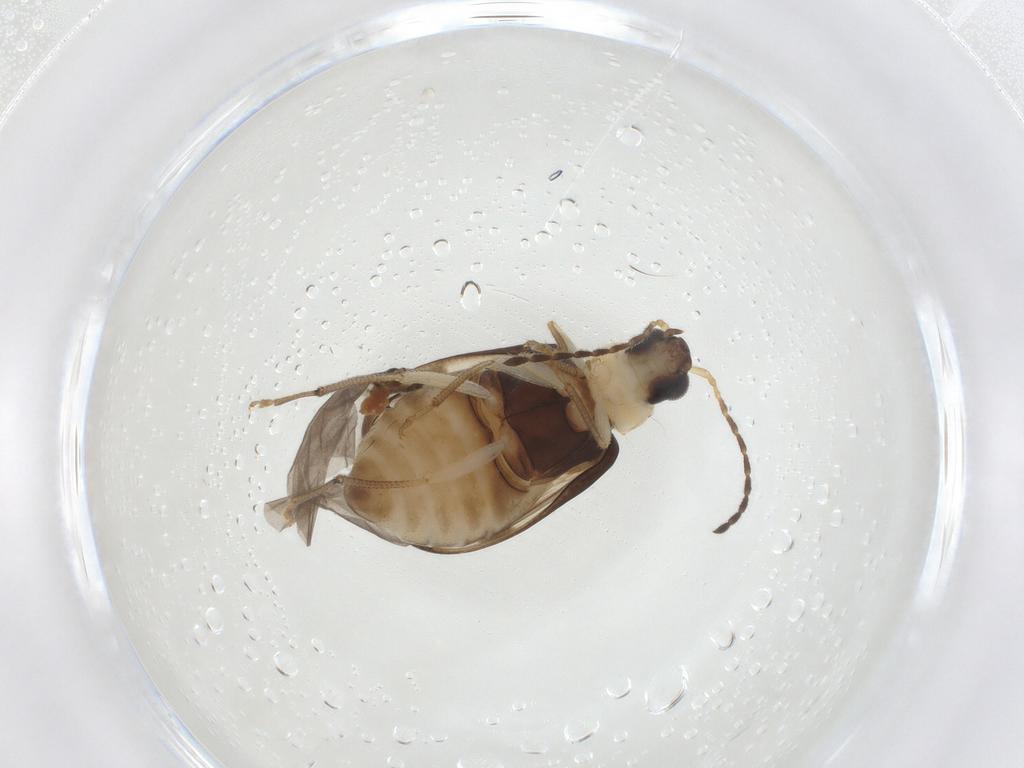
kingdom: Animalia
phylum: Arthropoda
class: Insecta
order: Coleoptera
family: Chrysomelidae
